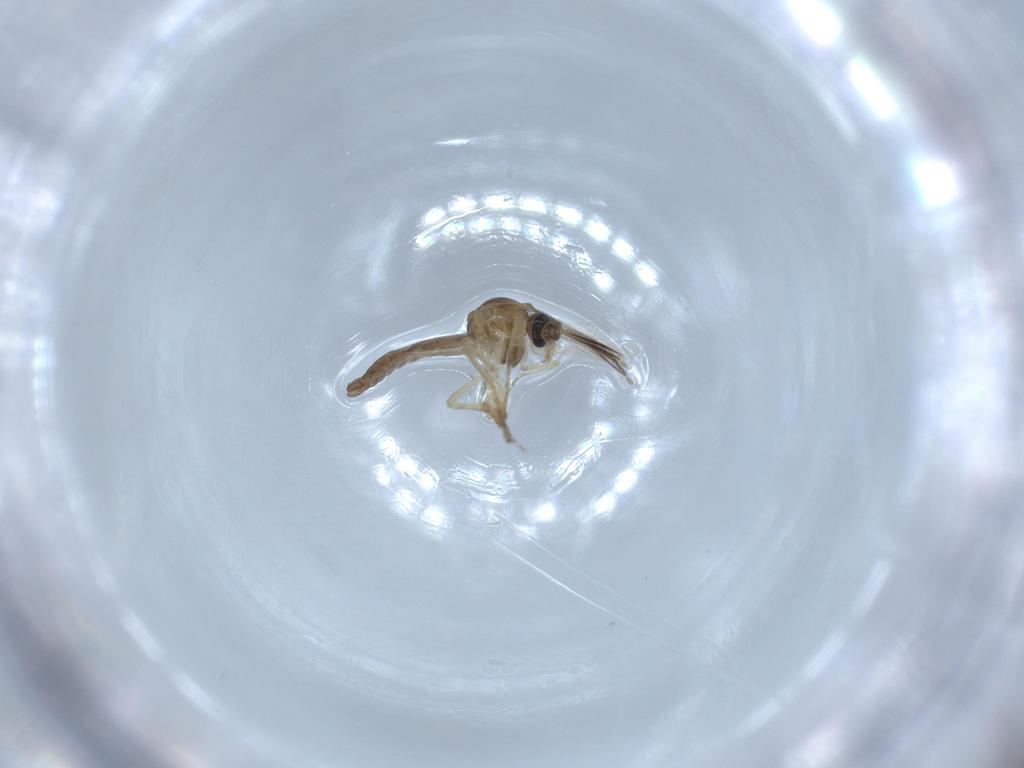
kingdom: Animalia
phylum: Arthropoda
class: Insecta
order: Diptera
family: Ceratopogonidae
